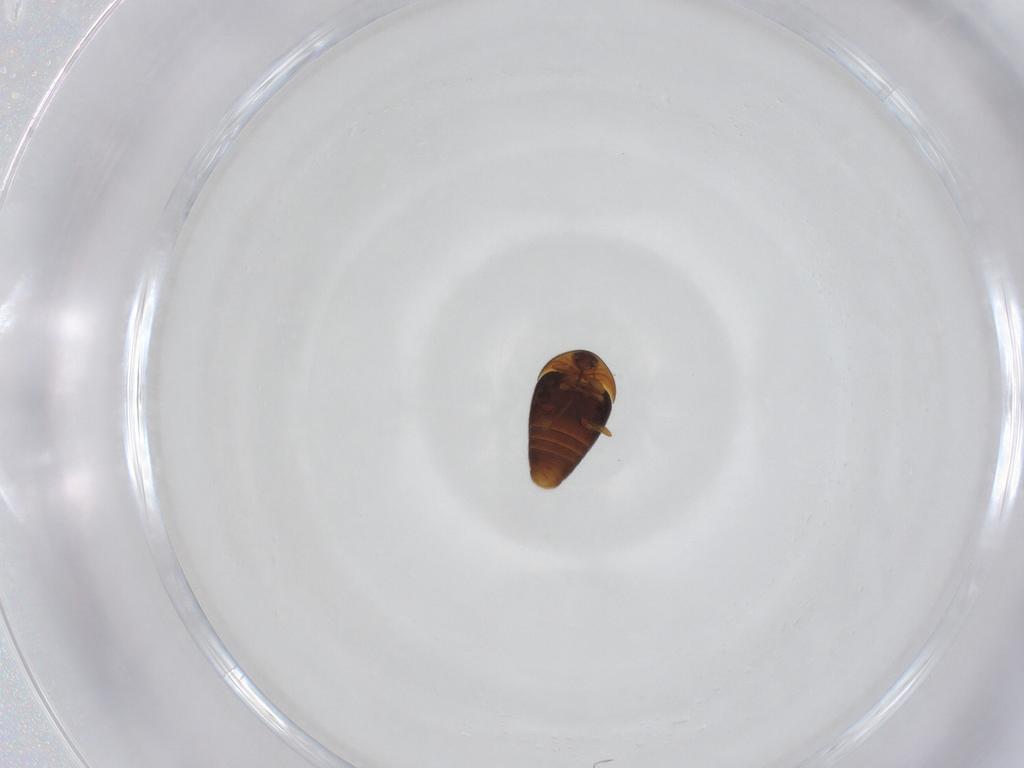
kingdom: Animalia
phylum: Arthropoda
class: Insecta
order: Coleoptera
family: Corylophidae
